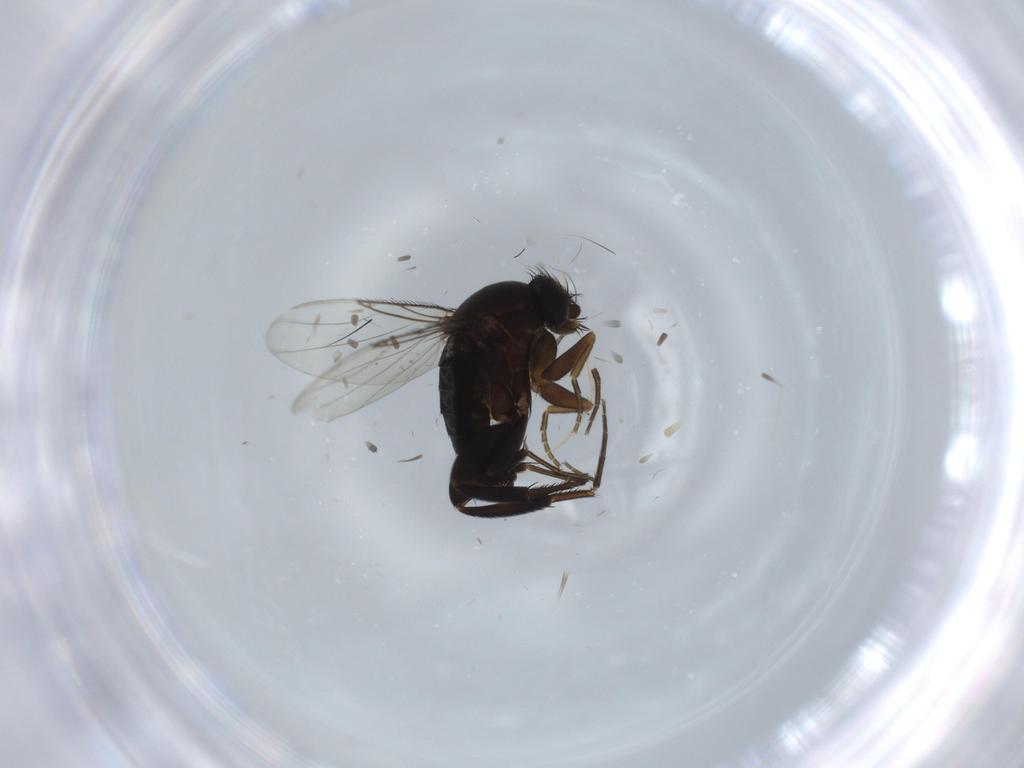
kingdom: Animalia
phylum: Arthropoda
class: Insecta
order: Diptera
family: Phoridae
